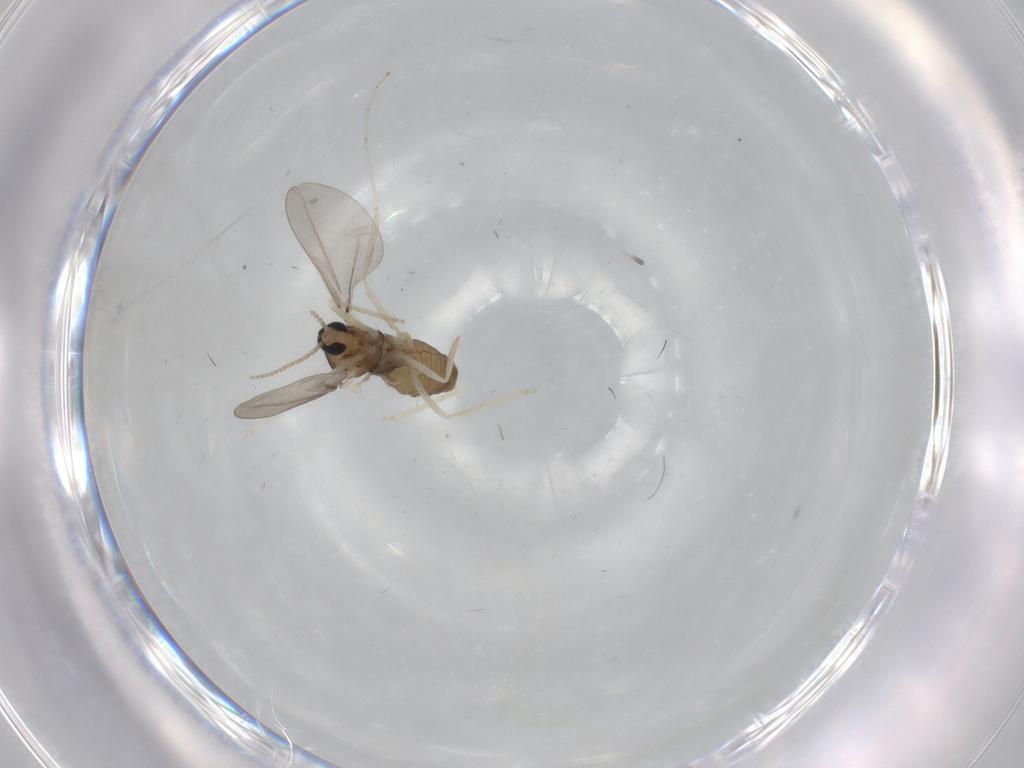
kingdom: Animalia
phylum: Arthropoda
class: Insecta
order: Diptera
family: Cecidomyiidae
